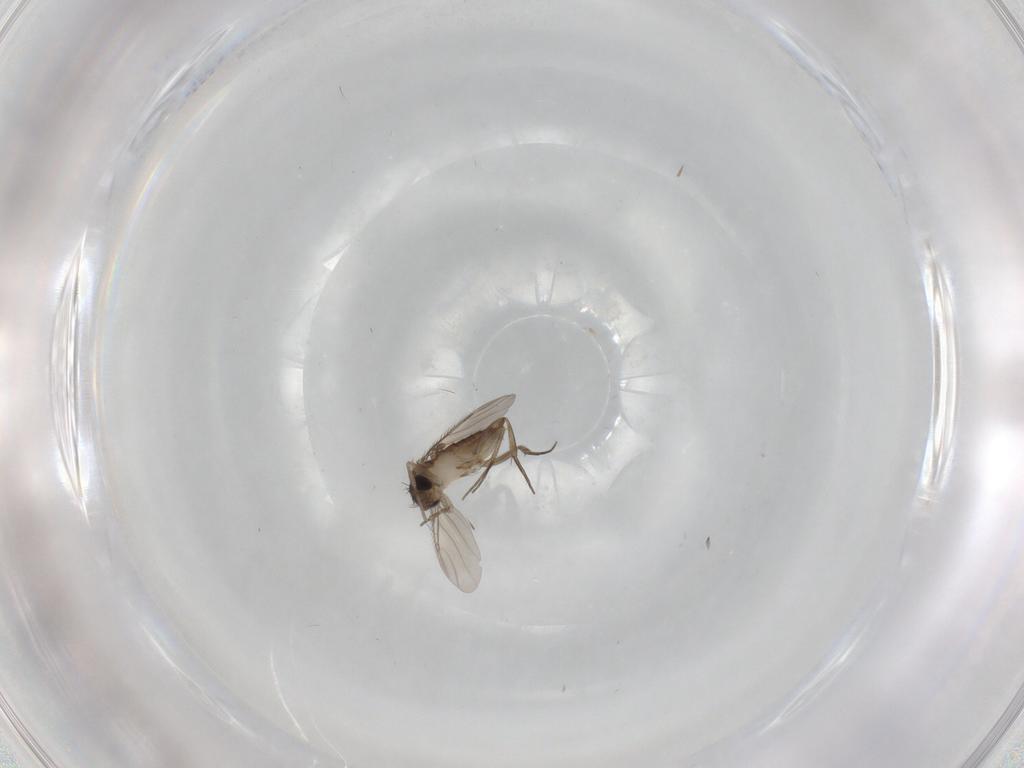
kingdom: Animalia
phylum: Arthropoda
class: Insecta
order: Diptera
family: Phoridae
